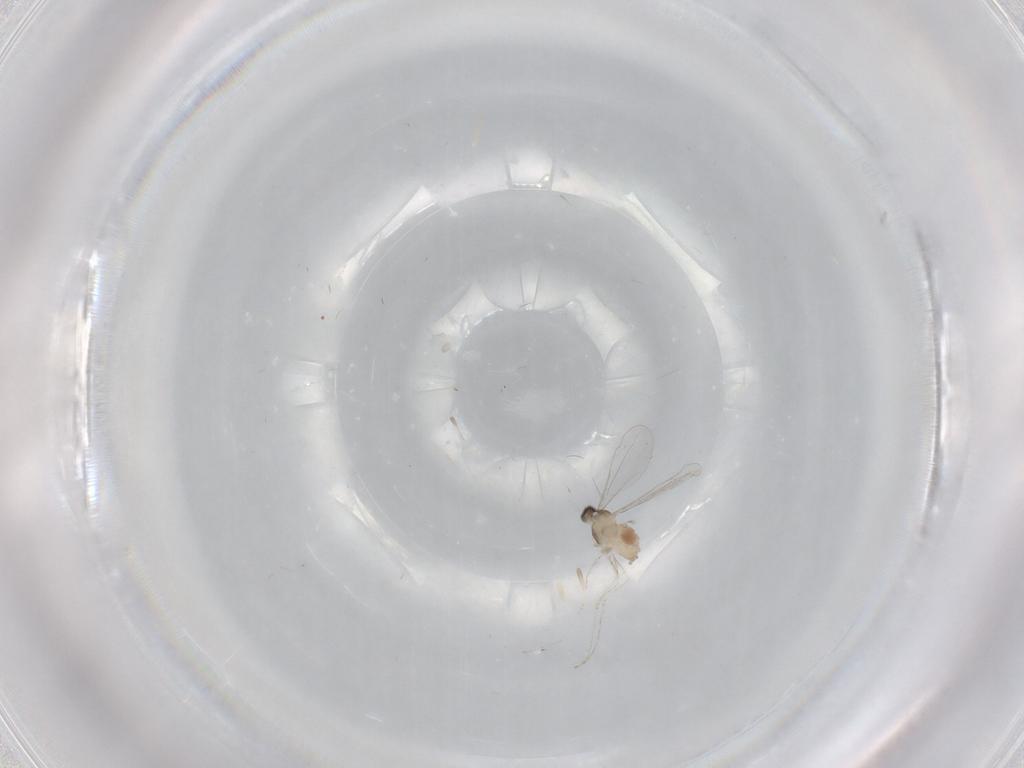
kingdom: Animalia
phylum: Arthropoda
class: Insecta
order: Diptera
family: Cecidomyiidae
